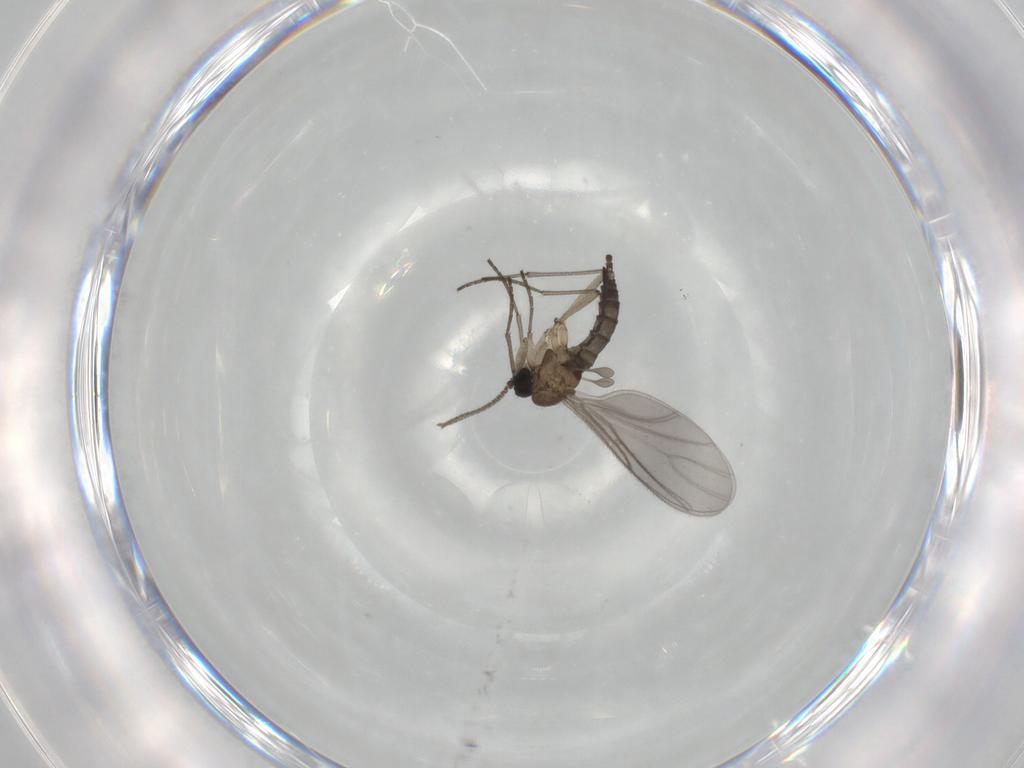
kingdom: Animalia
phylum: Arthropoda
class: Insecta
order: Diptera
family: Sciaridae
